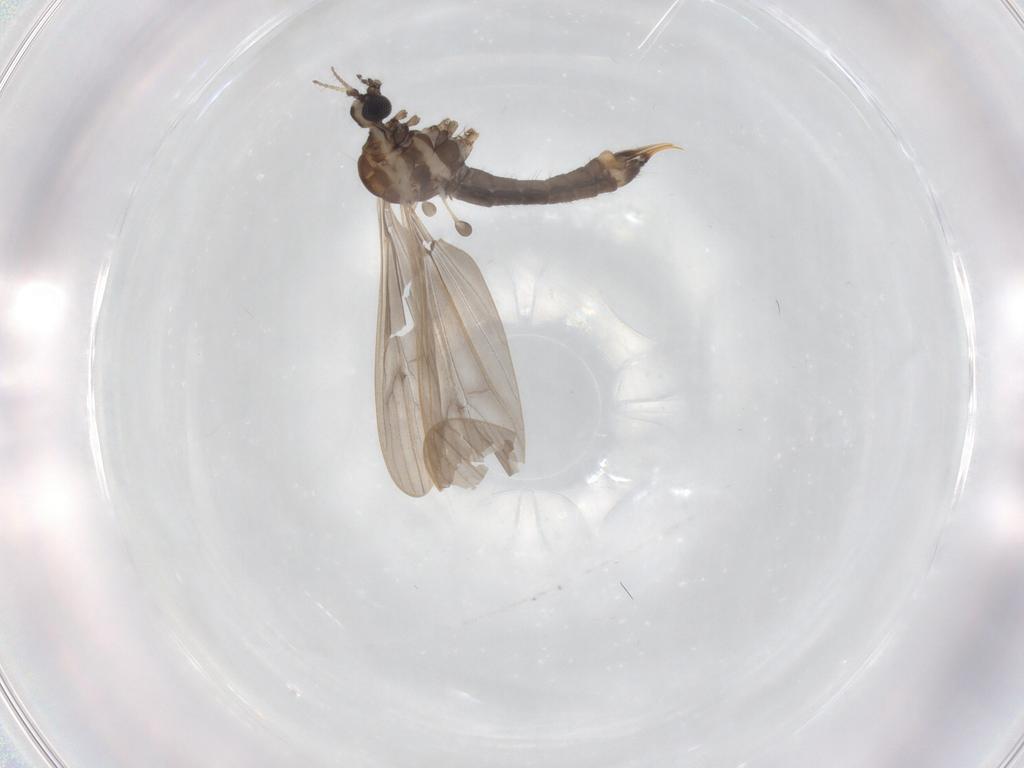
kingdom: Animalia
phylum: Arthropoda
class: Insecta
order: Diptera
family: Limoniidae
